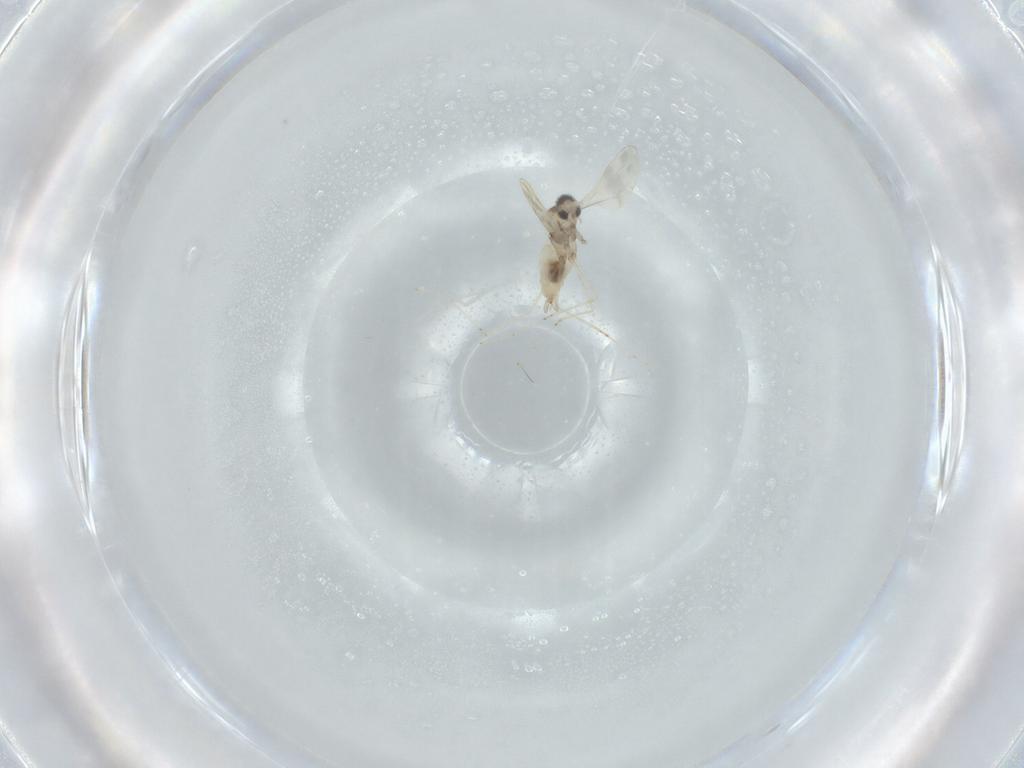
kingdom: Animalia
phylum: Arthropoda
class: Insecta
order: Diptera
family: Cecidomyiidae
